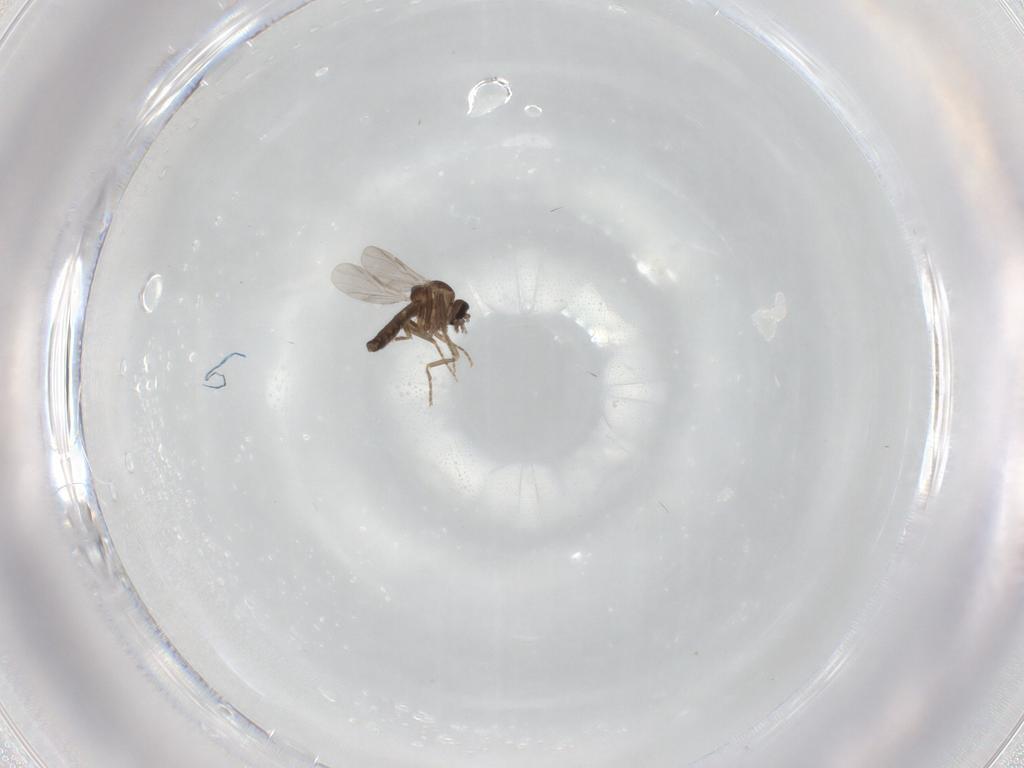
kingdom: Animalia
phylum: Arthropoda
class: Insecta
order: Diptera
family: Ceratopogonidae
